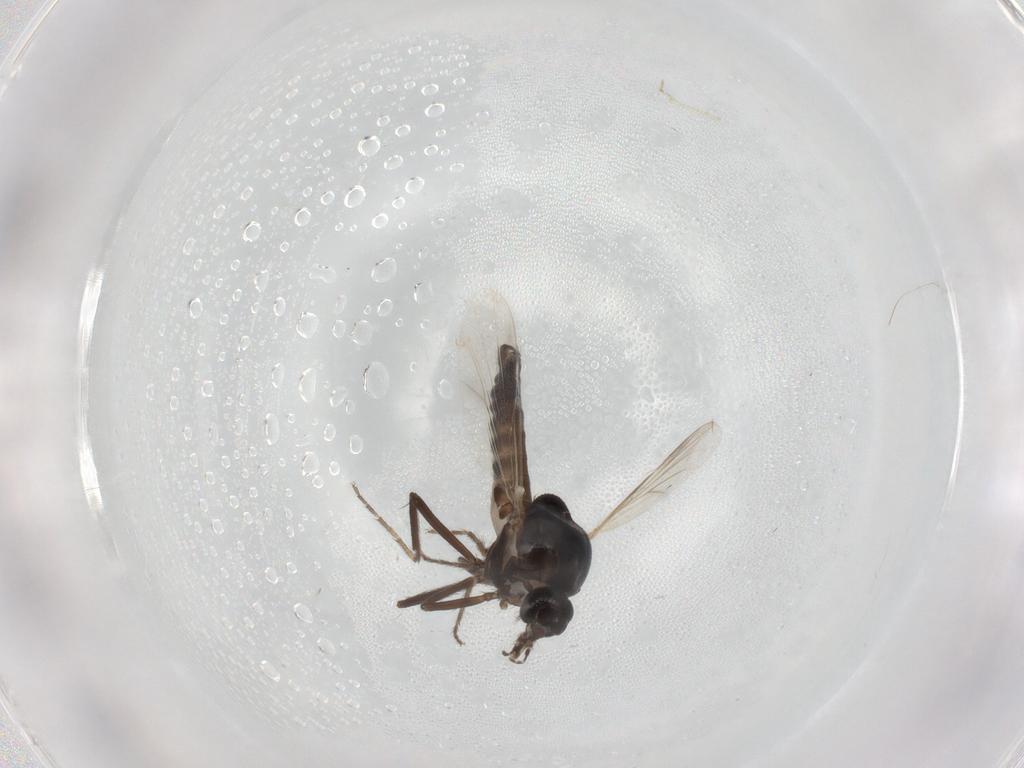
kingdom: Animalia
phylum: Arthropoda
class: Insecta
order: Diptera
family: Ceratopogonidae
